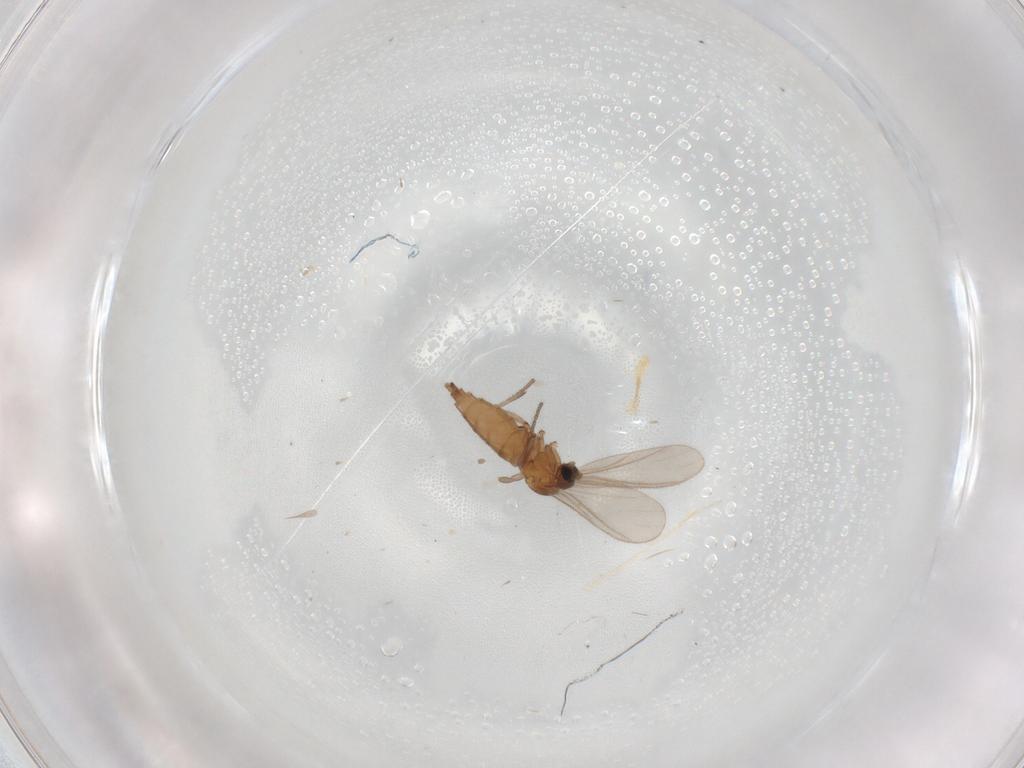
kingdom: Animalia
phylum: Arthropoda
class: Insecta
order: Diptera
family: Sciaridae
